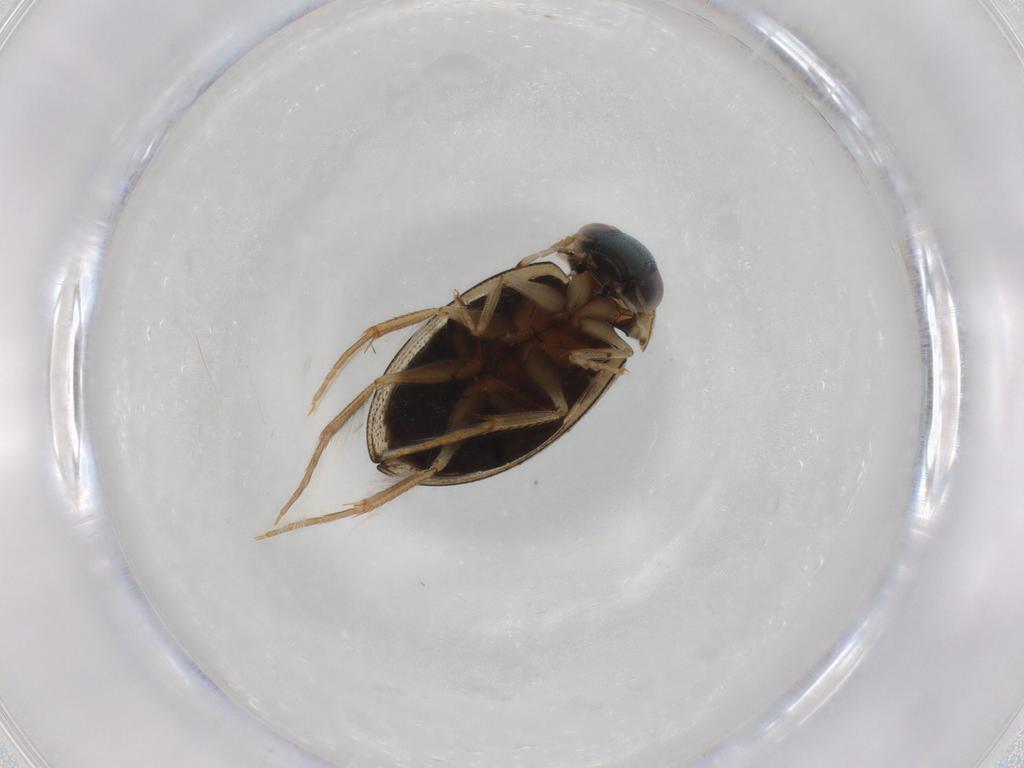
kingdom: Animalia
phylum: Arthropoda
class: Insecta
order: Coleoptera
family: Hydrophilidae
